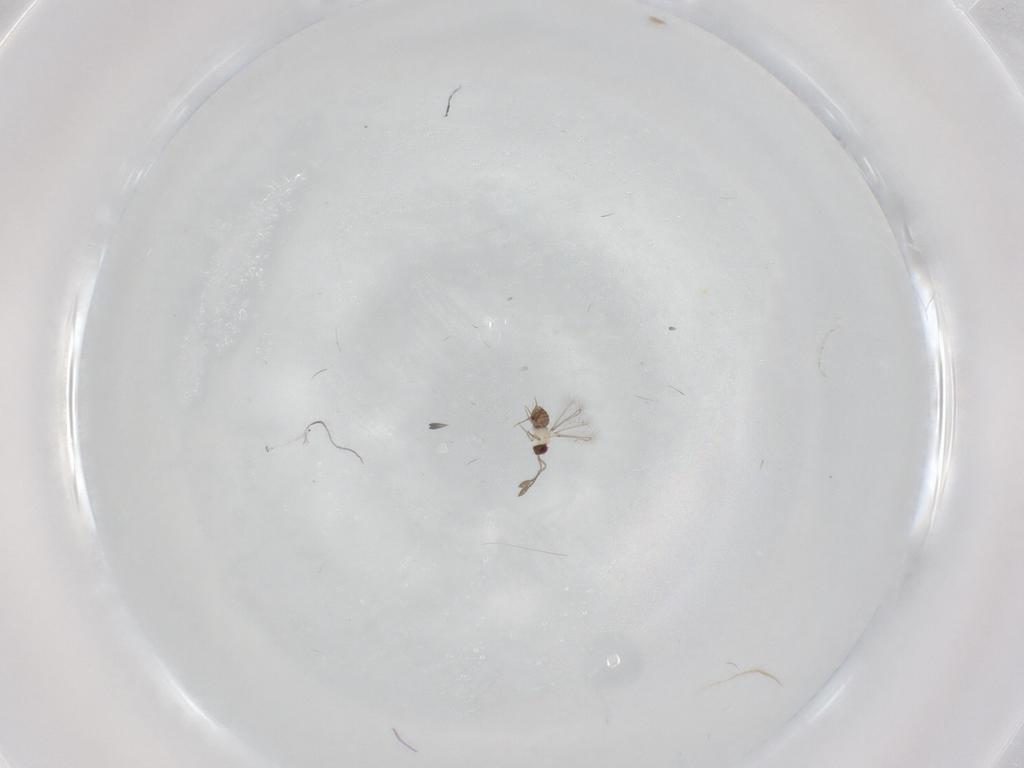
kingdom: Animalia
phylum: Arthropoda
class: Insecta
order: Hymenoptera
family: Mymaridae
